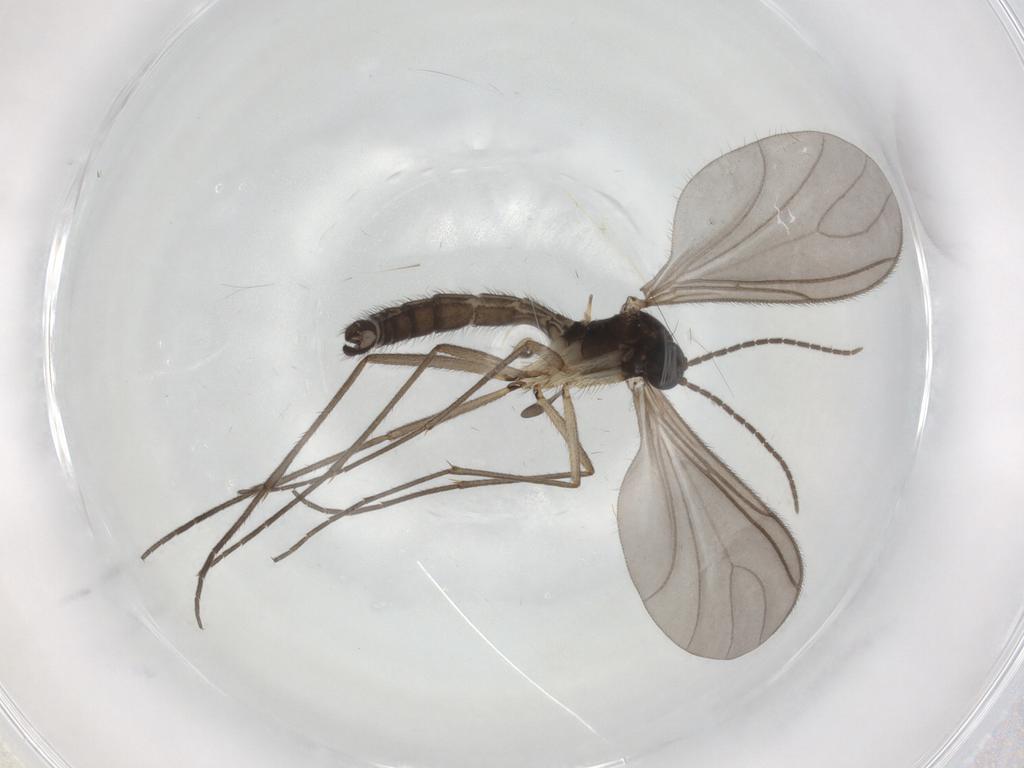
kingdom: Animalia
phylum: Arthropoda
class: Insecta
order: Diptera
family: Sciaridae
